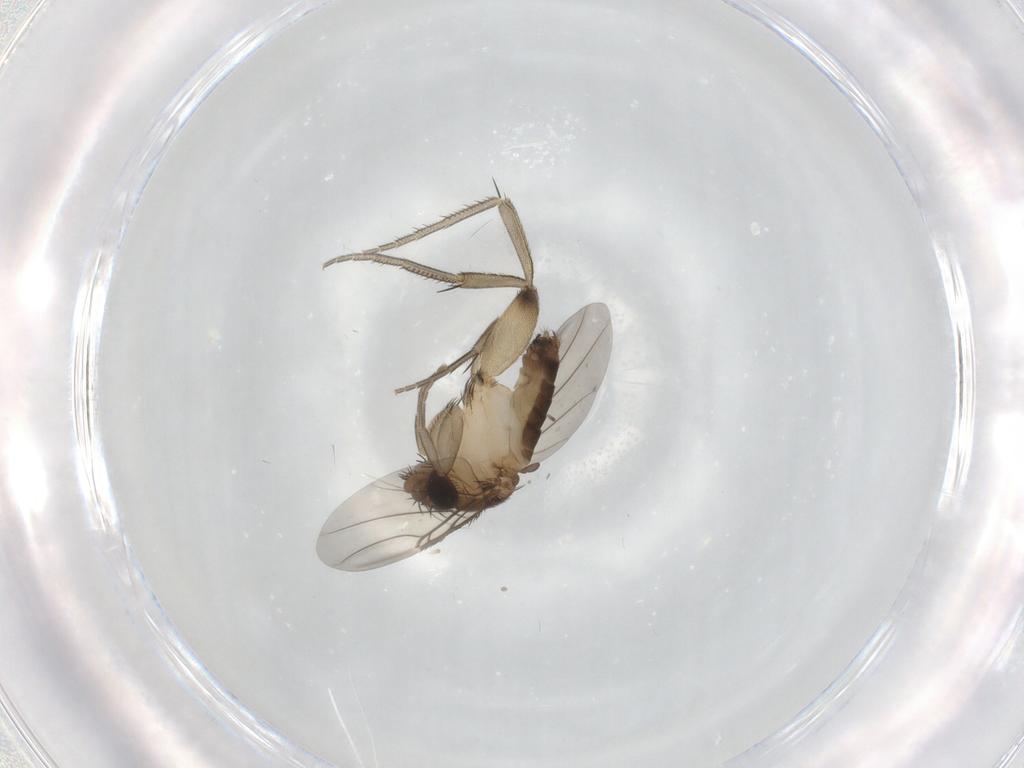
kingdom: Animalia
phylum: Arthropoda
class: Insecta
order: Diptera
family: Phoridae
